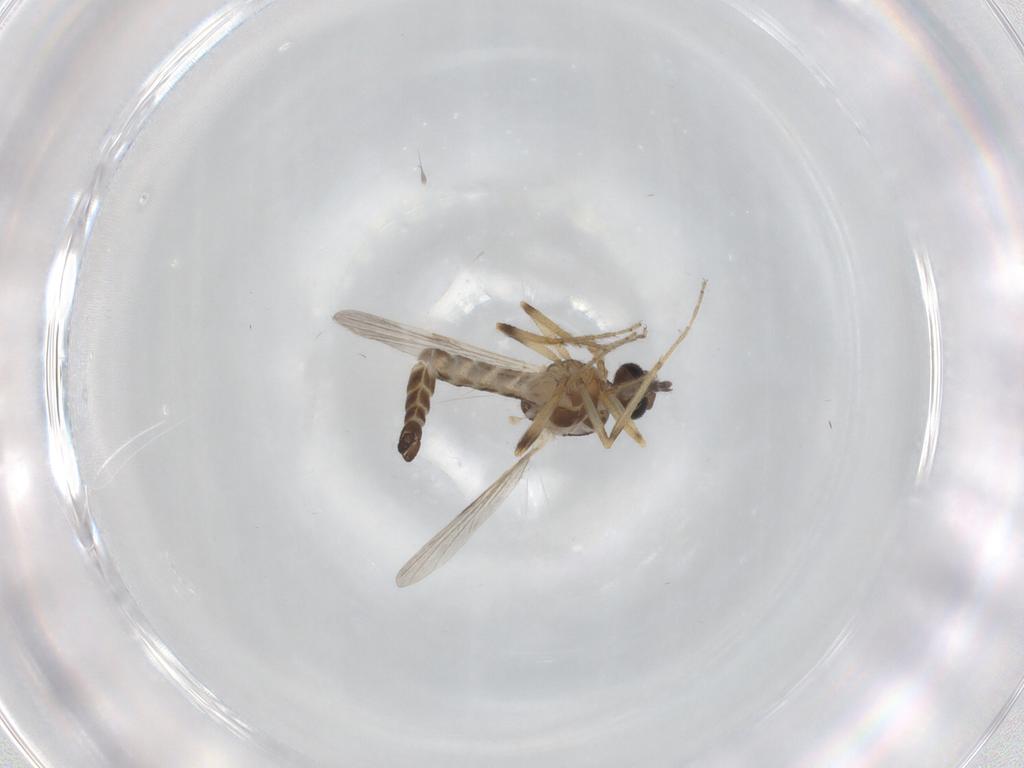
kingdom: Animalia
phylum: Arthropoda
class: Insecta
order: Diptera
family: Ceratopogonidae
